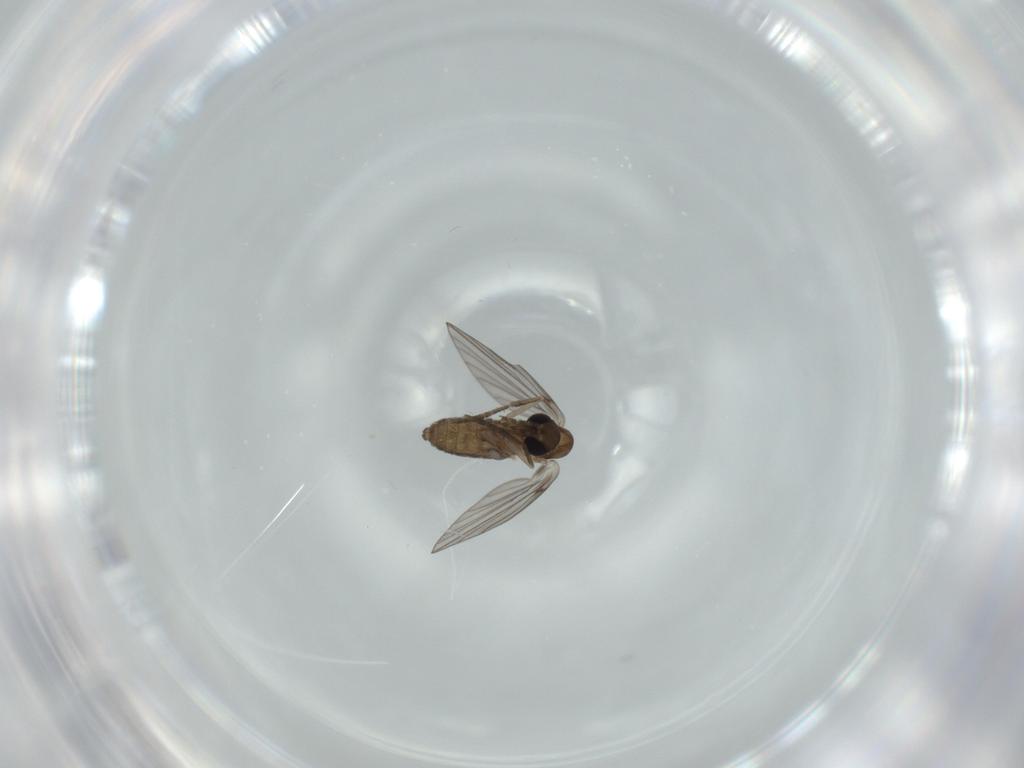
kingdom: Animalia
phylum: Arthropoda
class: Insecta
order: Diptera
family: Psychodidae
